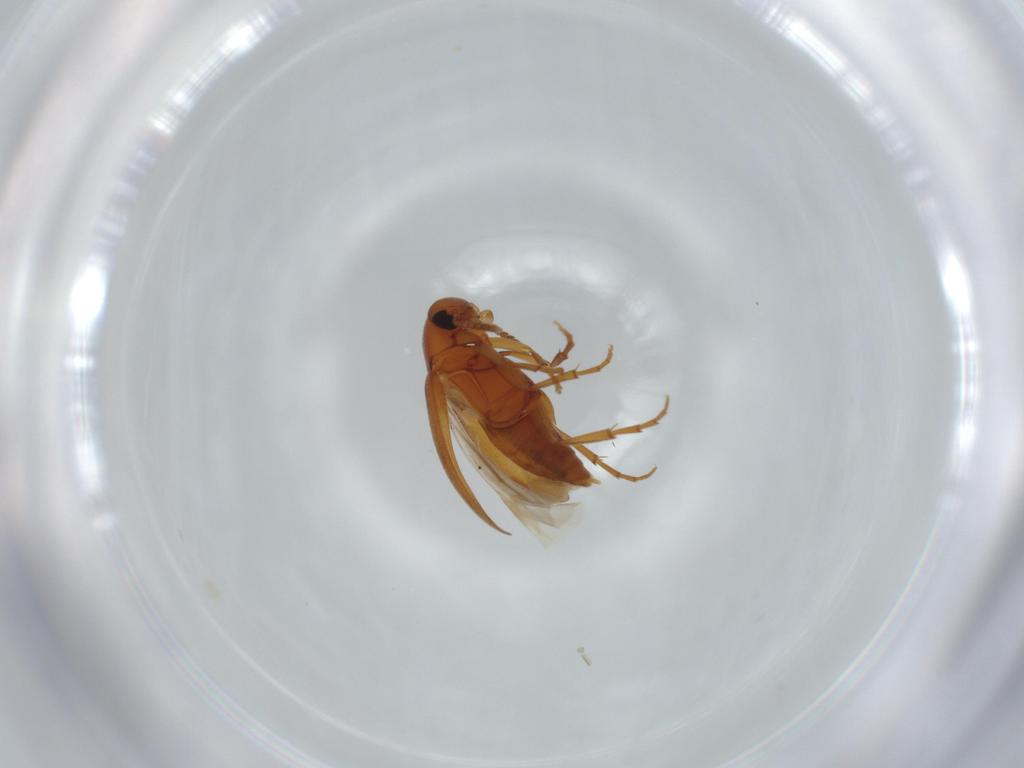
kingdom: Animalia
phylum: Arthropoda
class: Insecta
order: Coleoptera
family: Scraptiidae
